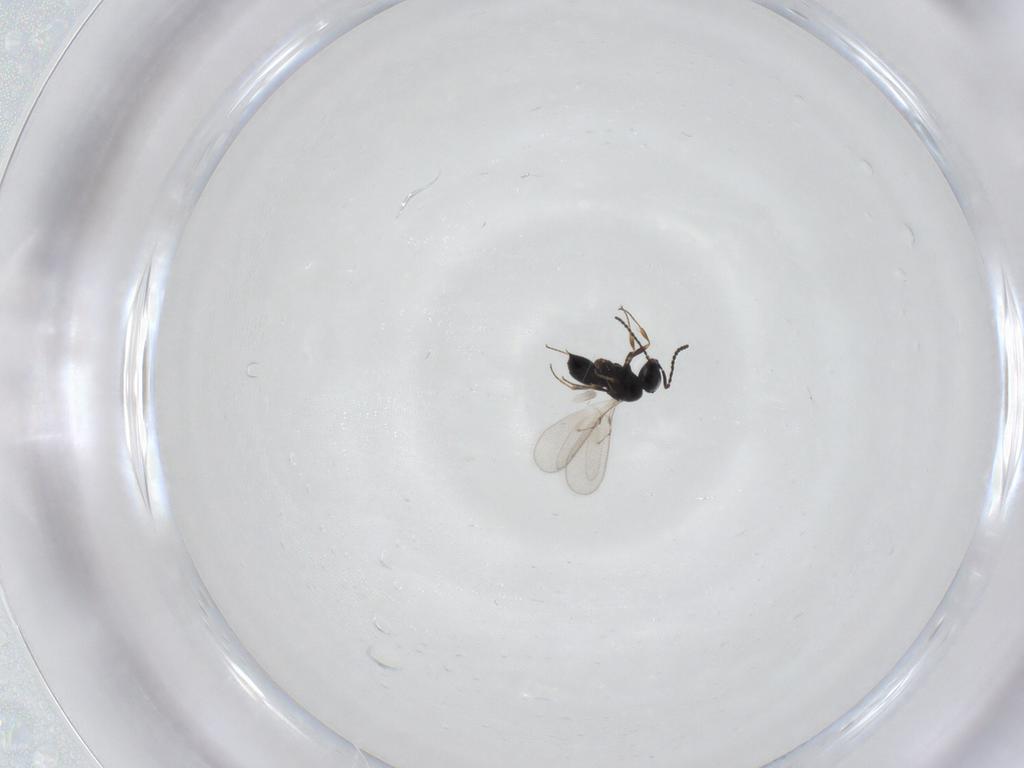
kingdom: Animalia
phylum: Arthropoda
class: Insecta
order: Hymenoptera
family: Scelionidae
